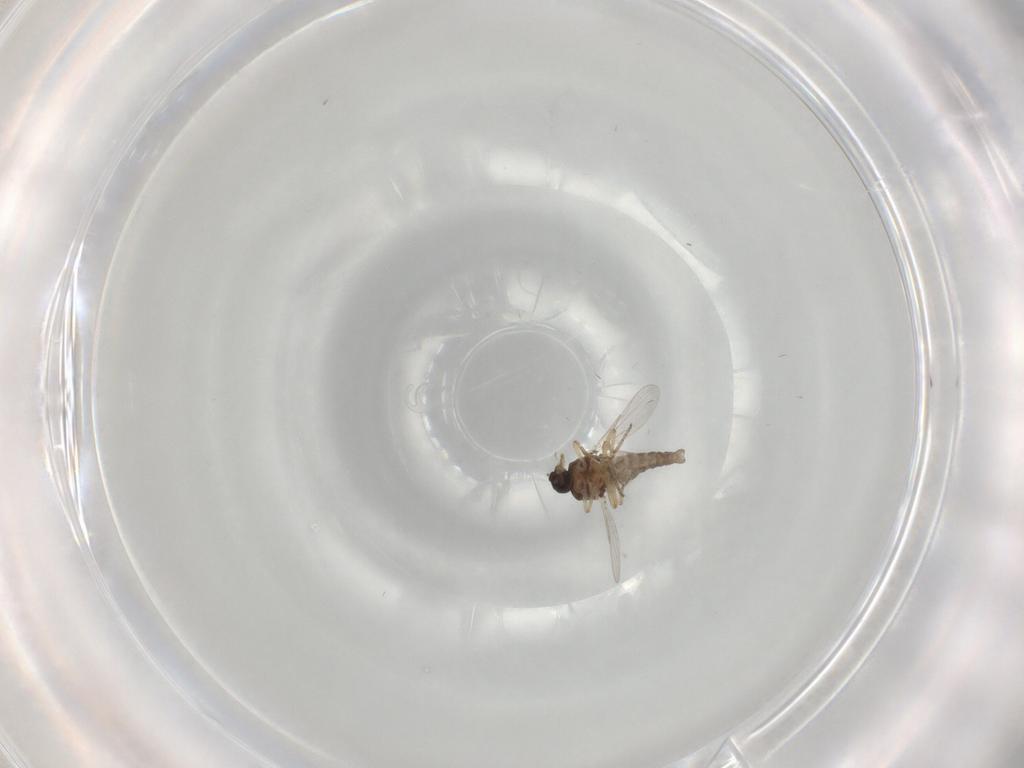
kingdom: Animalia
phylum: Arthropoda
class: Insecta
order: Diptera
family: Ceratopogonidae
